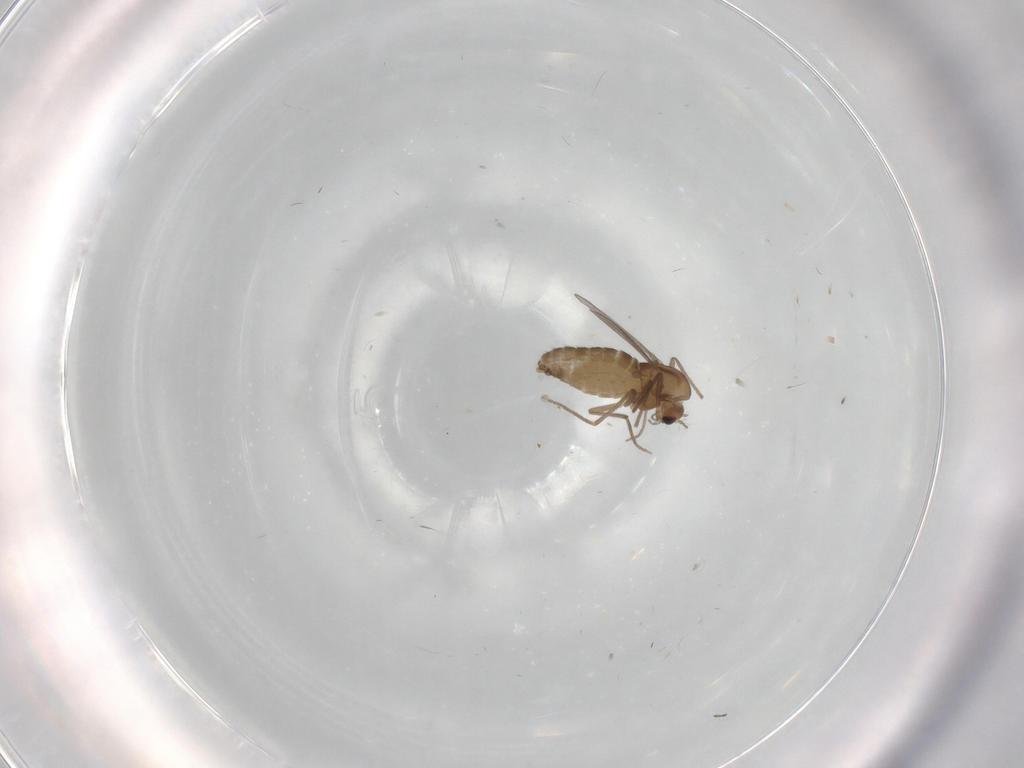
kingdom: Animalia
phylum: Arthropoda
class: Insecta
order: Diptera
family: Chironomidae
